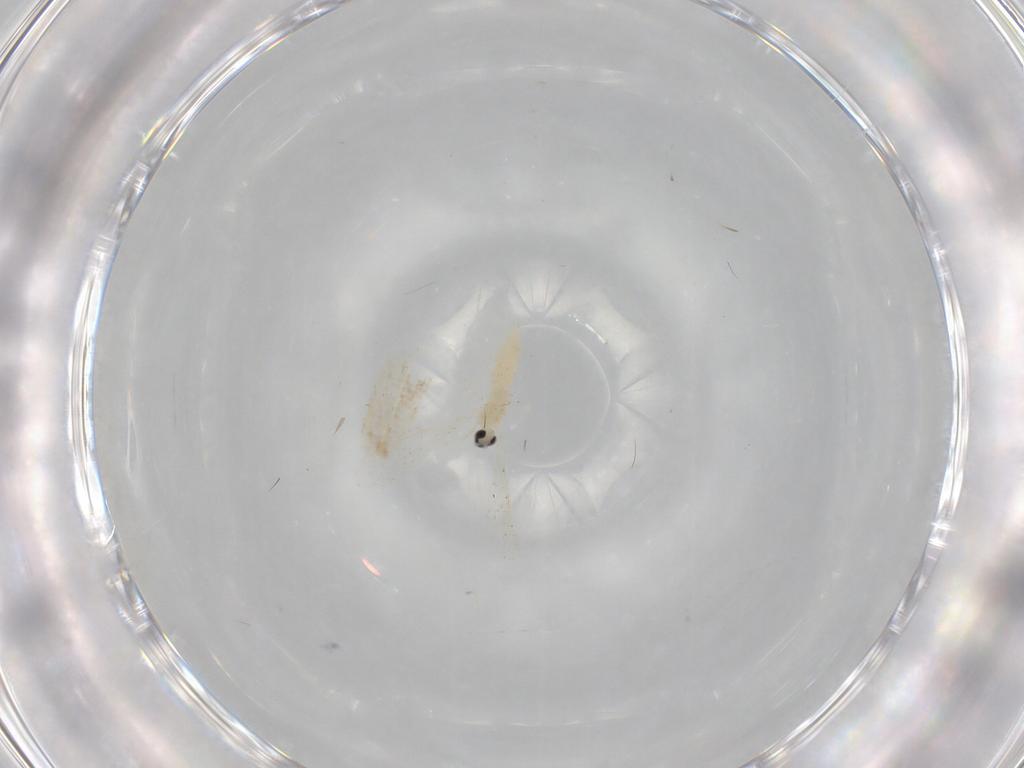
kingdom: Animalia
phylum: Arthropoda
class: Insecta
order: Diptera
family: Cecidomyiidae
